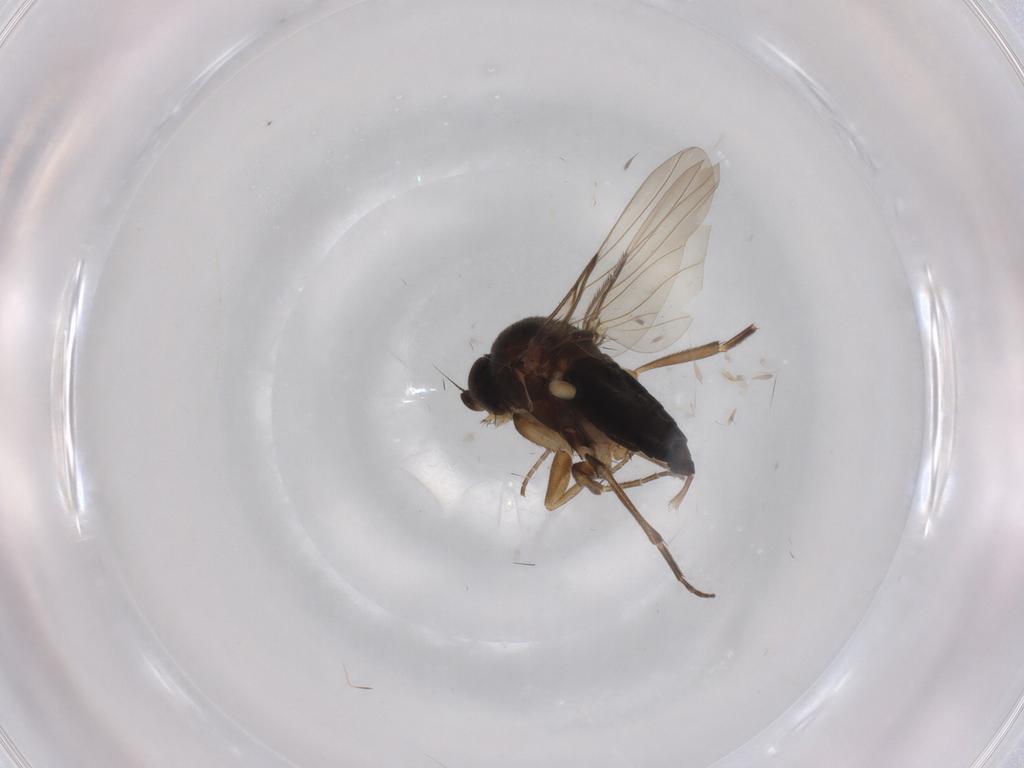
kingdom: Animalia
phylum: Arthropoda
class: Insecta
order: Diptera
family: Phoridae
